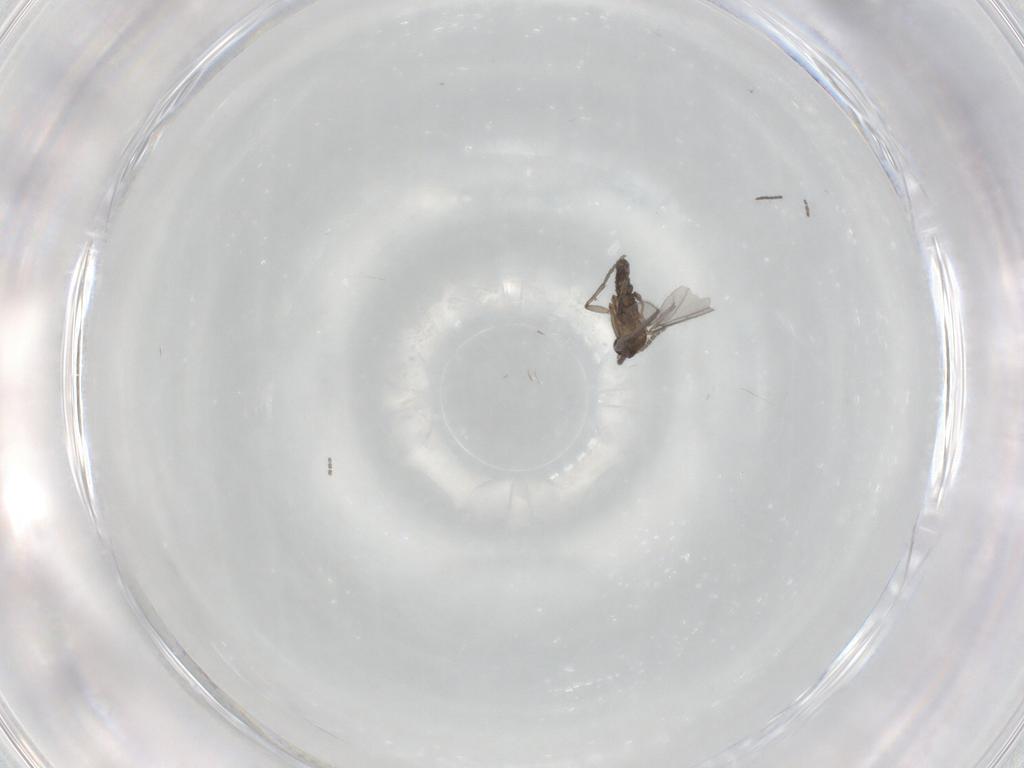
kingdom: Animalia
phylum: Arthropoda
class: Insecta
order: Diptera
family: Sciaridae
